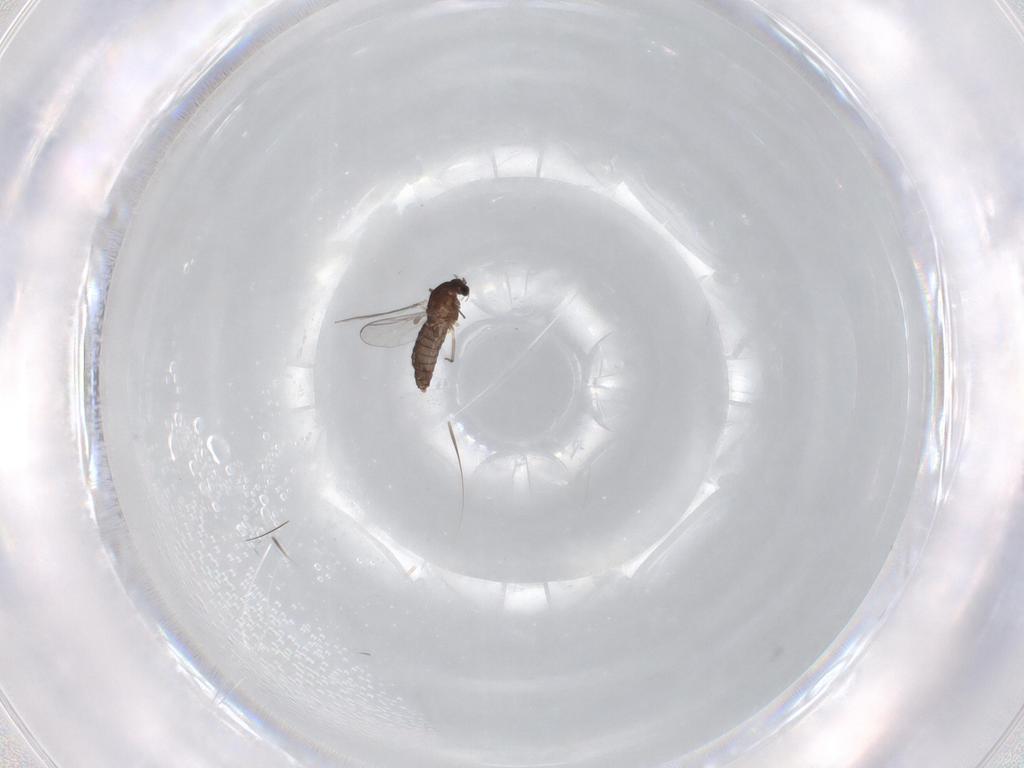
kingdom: Animalia
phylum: Arthropoda
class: Insecta
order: Diptera
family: Chironomidae
